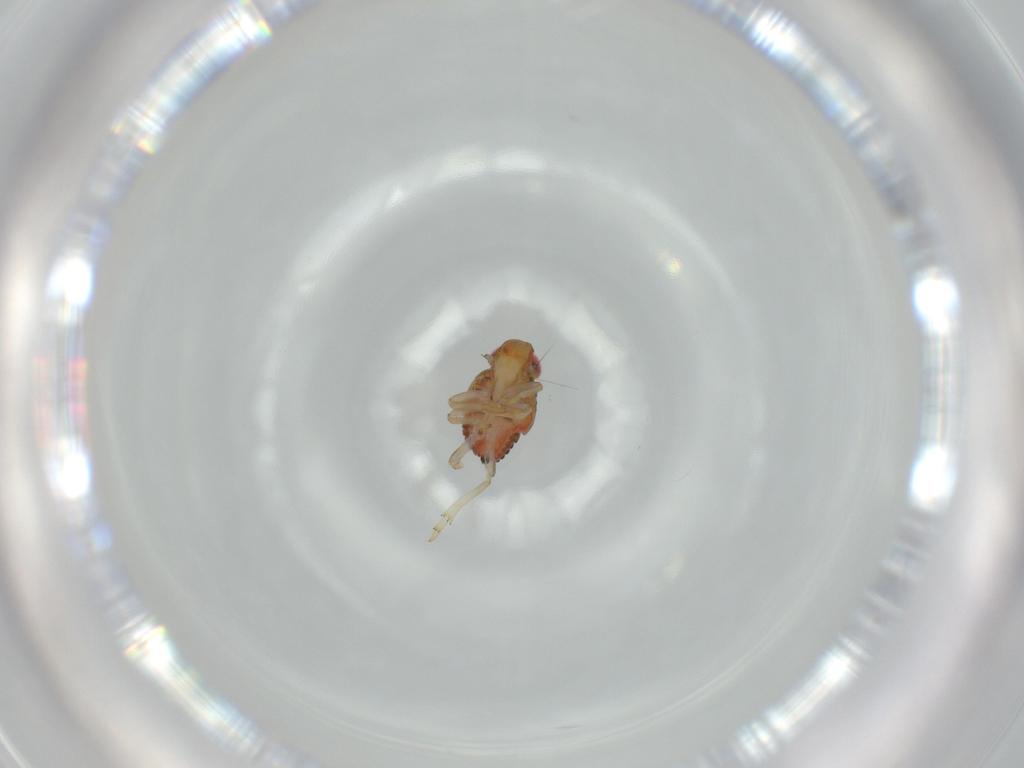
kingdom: Animalia
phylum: Arthropoda
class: Insecta
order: Hemiptera
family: Issidae
